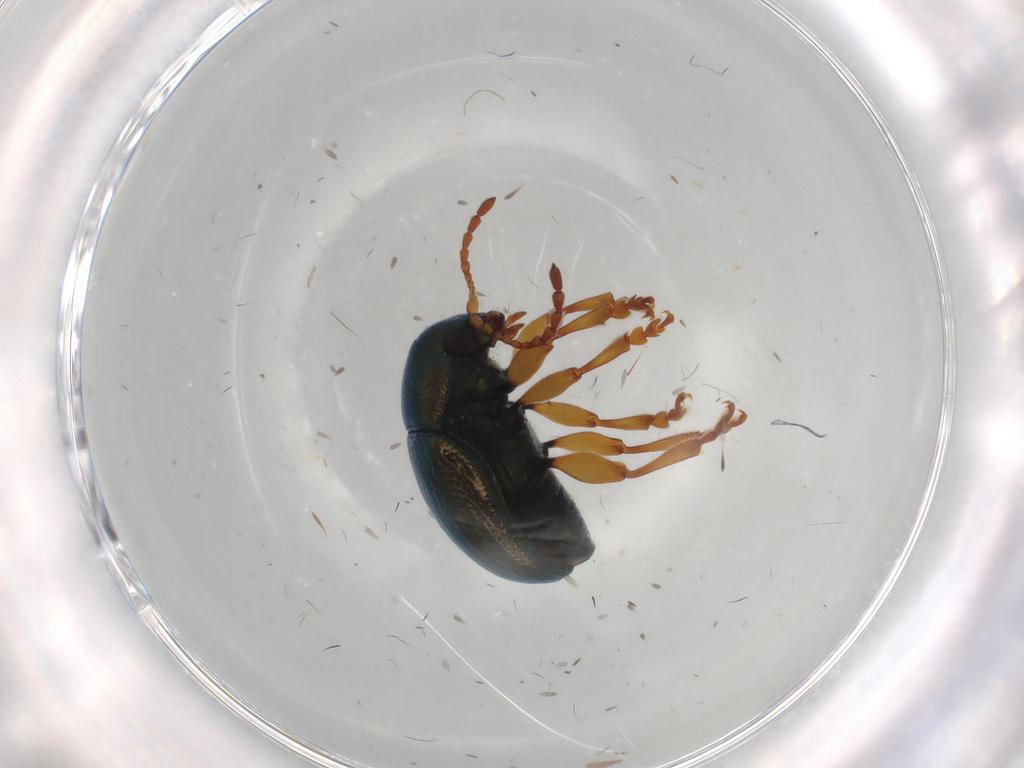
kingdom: Animalia
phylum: Arthropoda
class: Insecta
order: Coleoptera
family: Chrysomelidae
